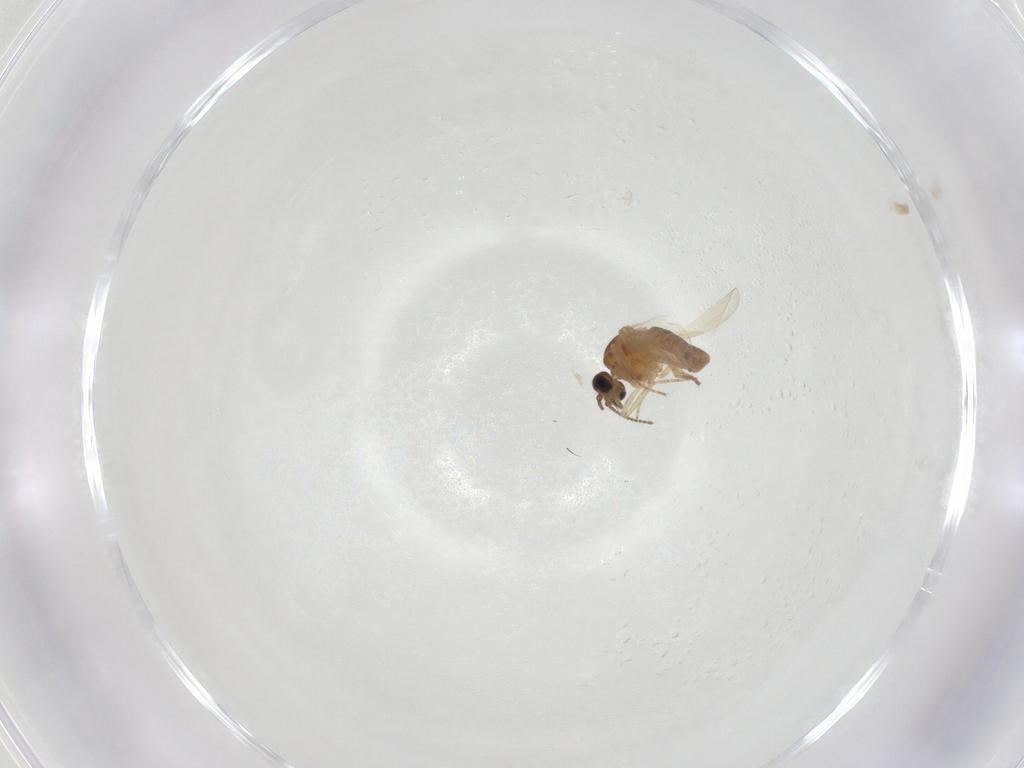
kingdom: Animalia
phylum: Arthropoda
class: Insecta
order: Diptera
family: Ceratopogonidae
